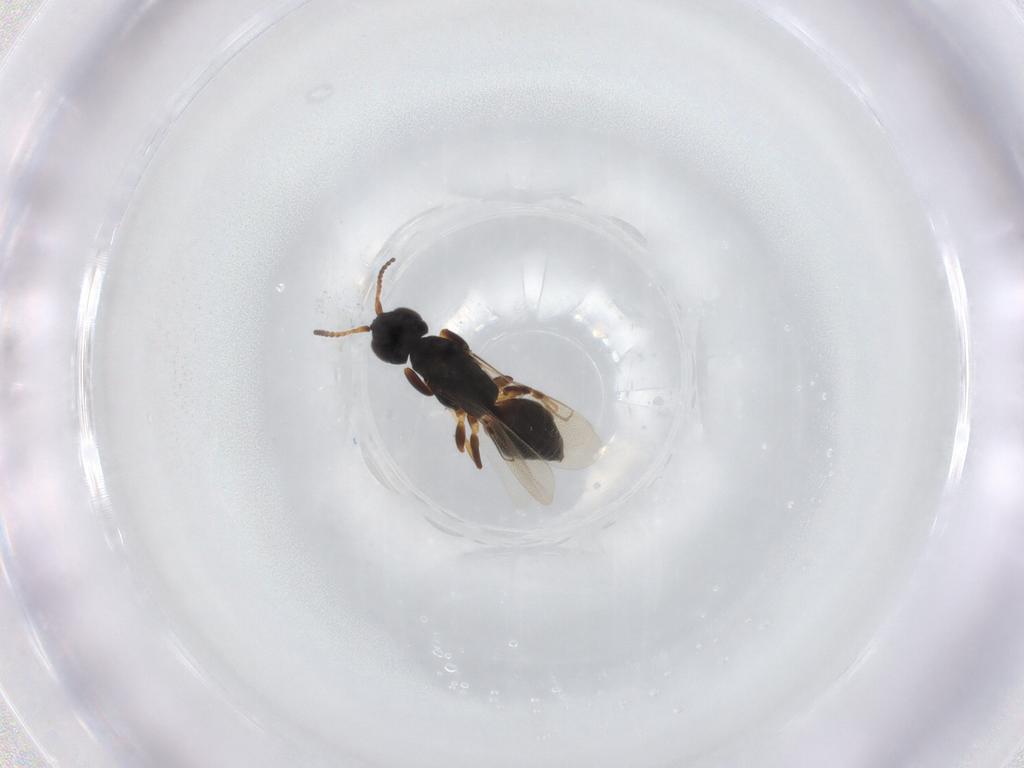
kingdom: Animalia
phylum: Arthropoda
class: Insecta
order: Hymenoptera
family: Bethylidae
